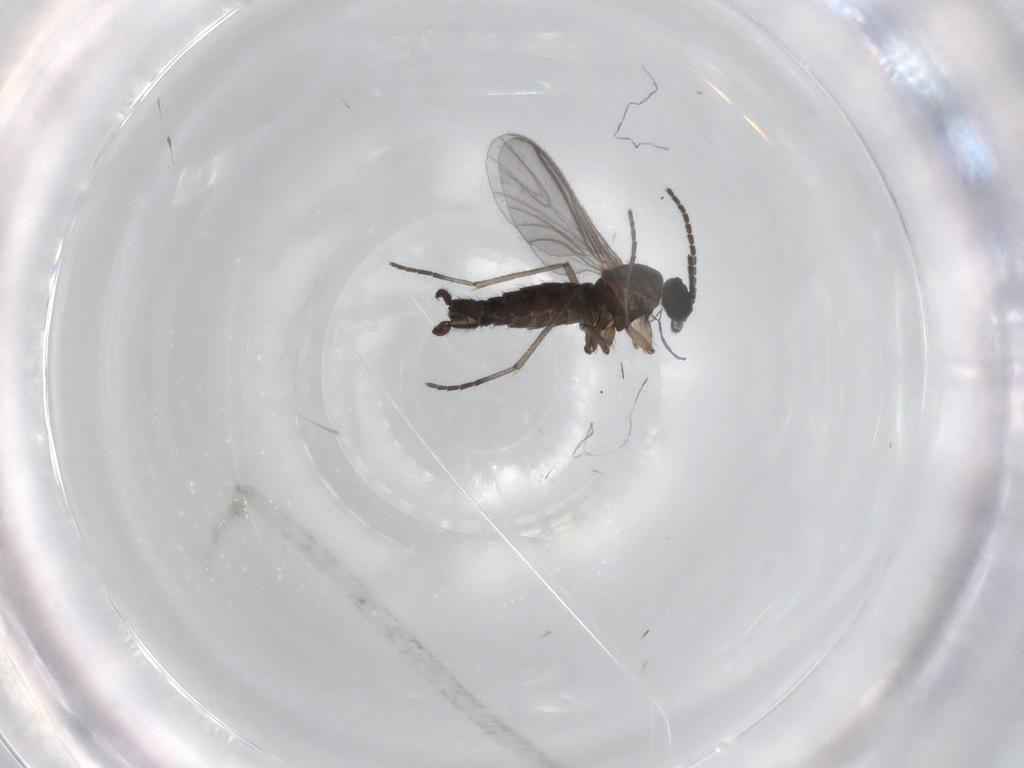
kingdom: Animalia
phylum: Arthropoda
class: Insecta
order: Diptera
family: Sciaridae
